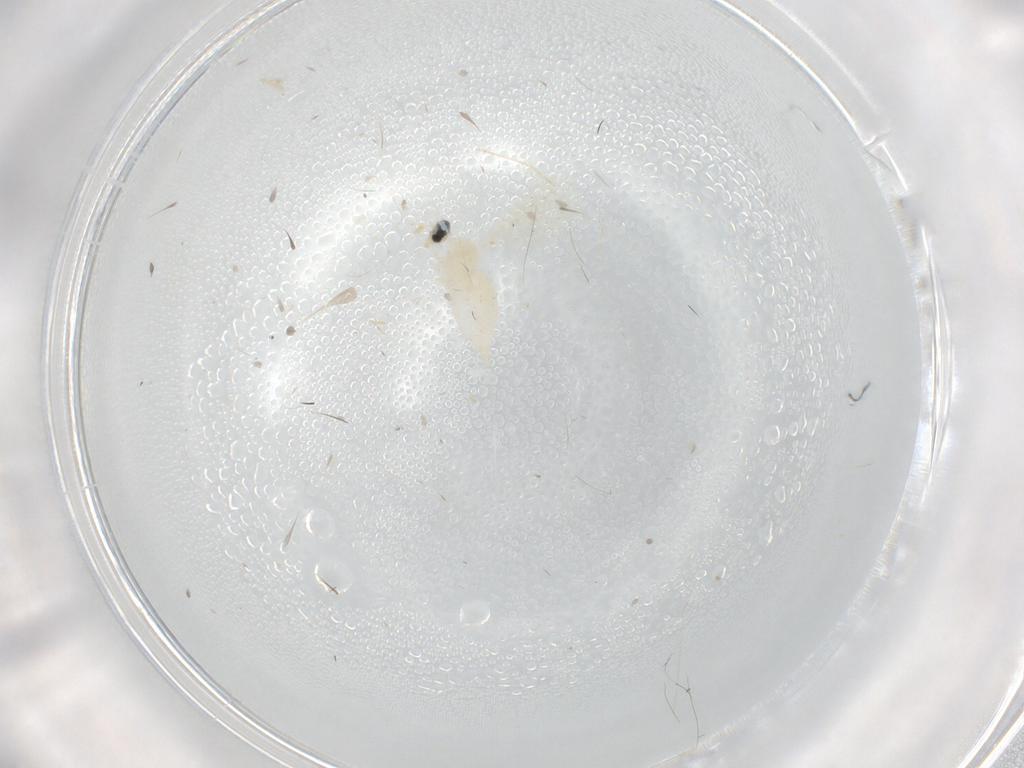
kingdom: Animalia
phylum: Arthropoda
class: Insecta
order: Diptera
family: Cecidomyiidae
